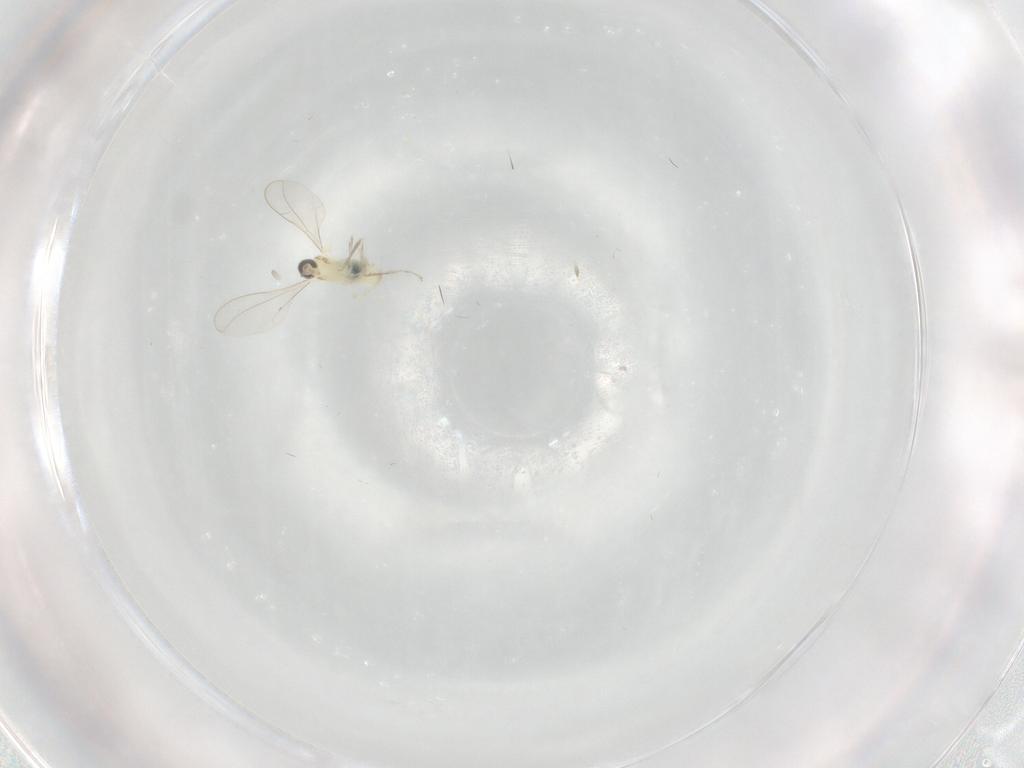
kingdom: Animalia
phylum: Arthropoda
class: Insecta
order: Diptera
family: Cecidomyiidae
